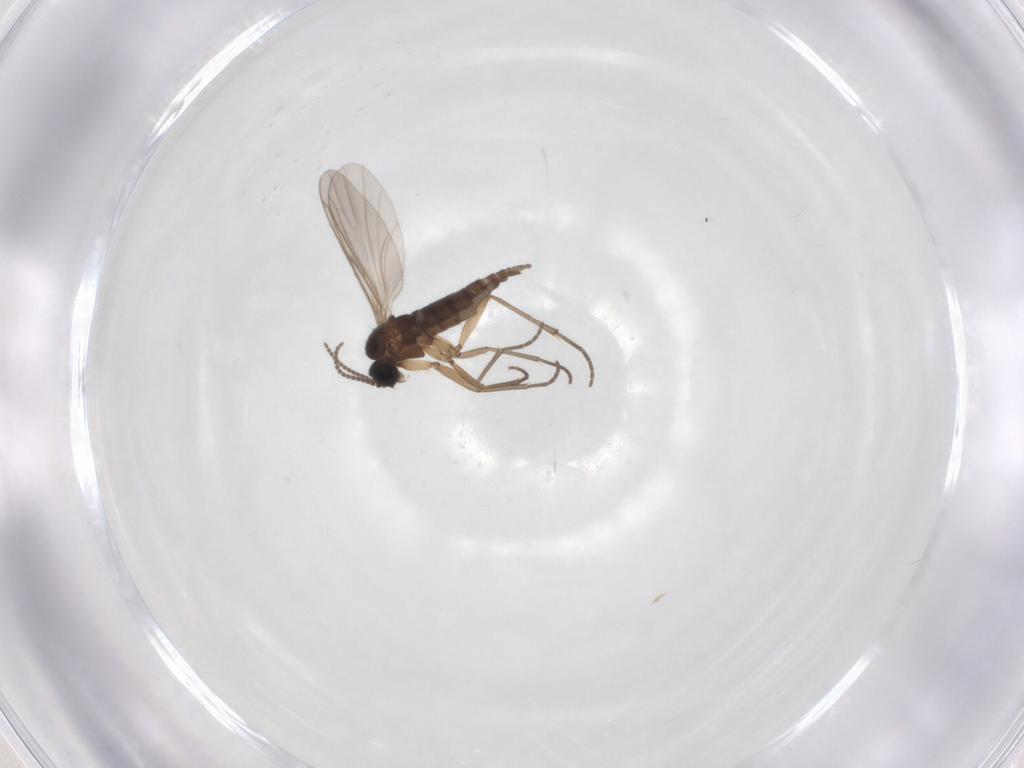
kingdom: Animalia
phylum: Arthropoda
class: Insecta
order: Diptera
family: Sciaridae
